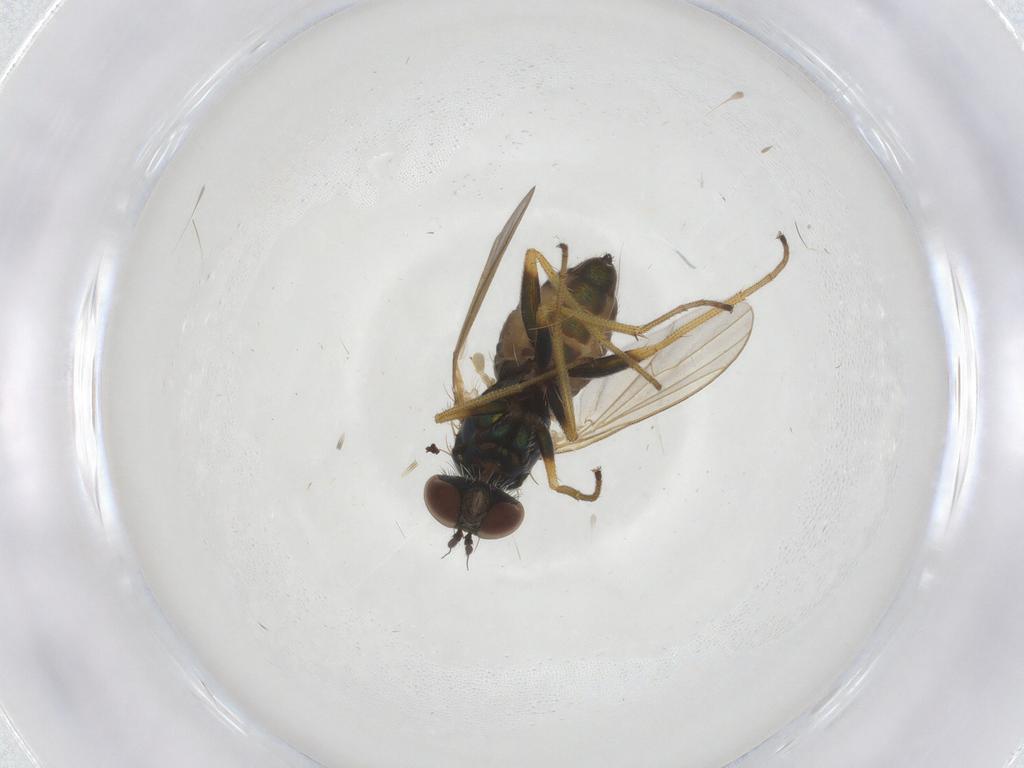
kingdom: Animalia
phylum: Arthropoda
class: Insecta
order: Diptera
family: Dolichopodidae
